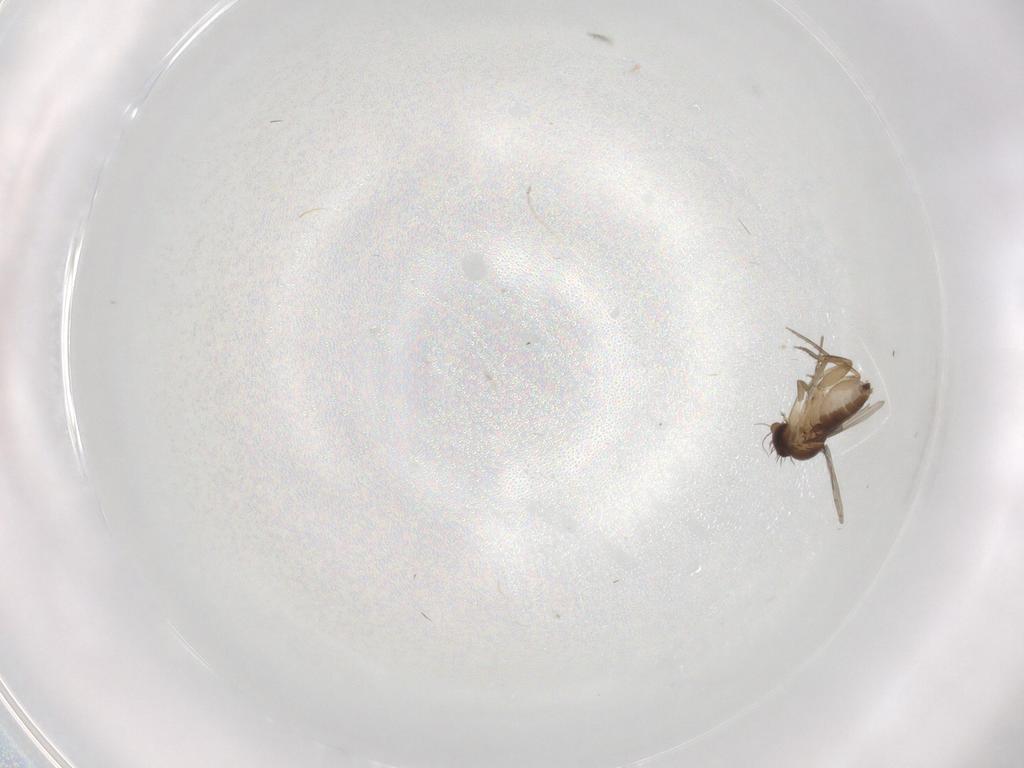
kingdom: Animalia
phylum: Arthropoda
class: Insecta
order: Diptera
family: Phoridae
